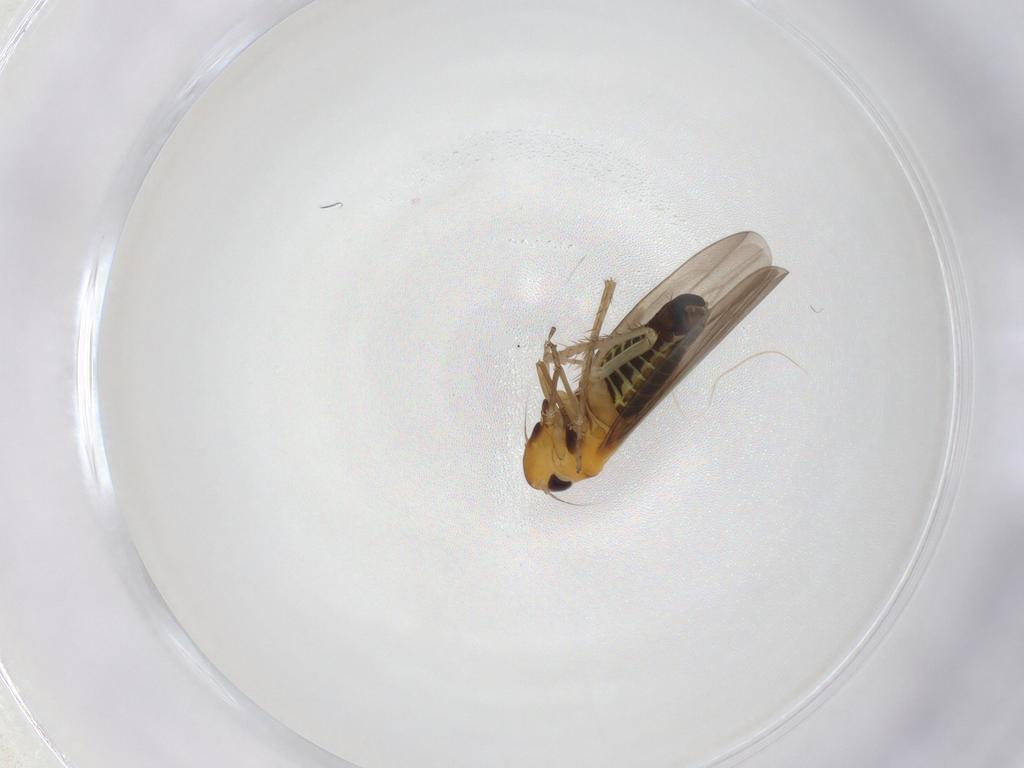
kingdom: Animalia
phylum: Arthropoda
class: Insecta
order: Hemiptera
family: Cicadellidae
